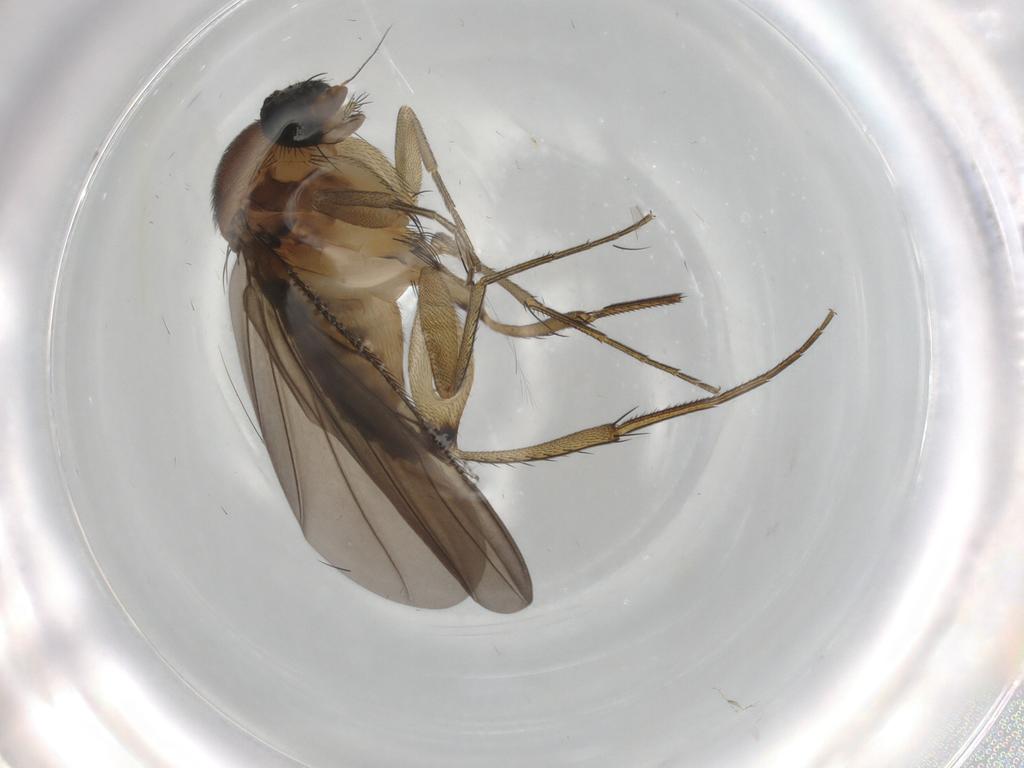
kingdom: Animalia
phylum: Arthropoda
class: Insecta
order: Diptera
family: Phoridae
